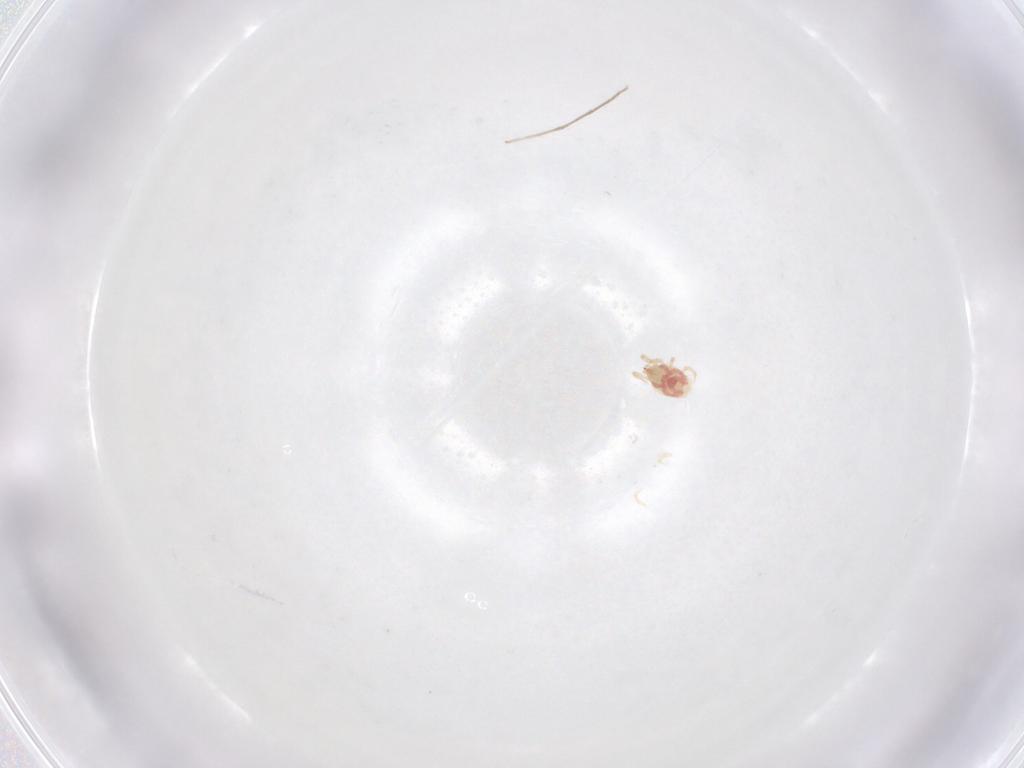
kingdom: Animalia
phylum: Arthropoda
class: Arachnida
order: Mesostigmata
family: Phytoseiidae
